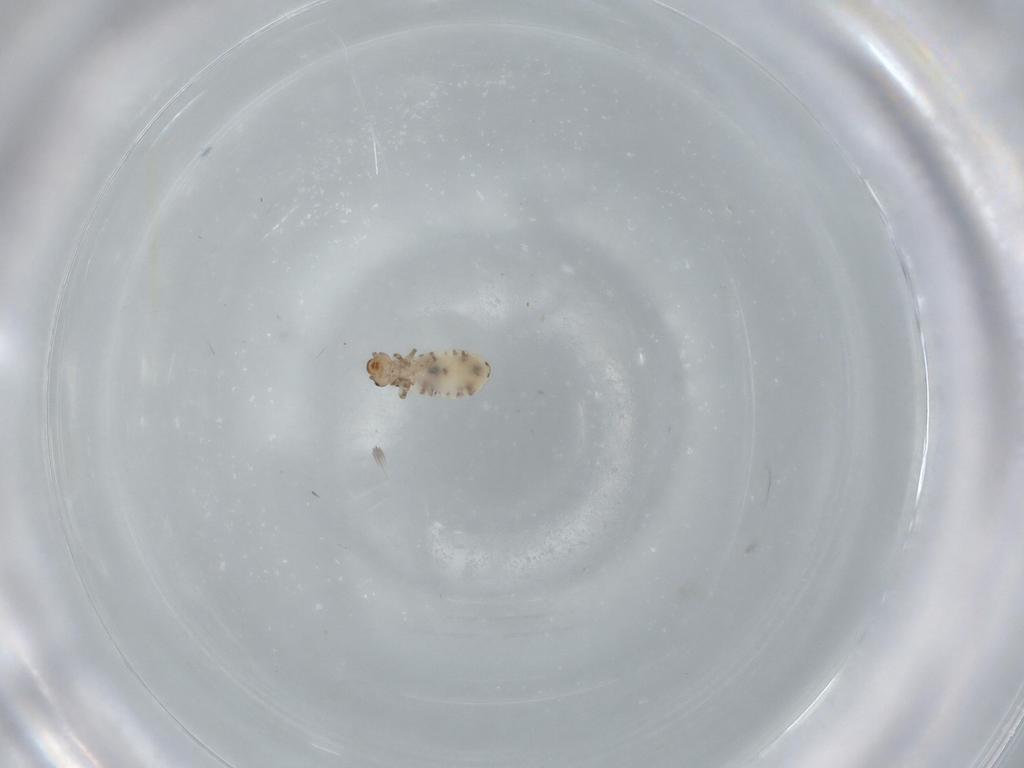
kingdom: Animalia
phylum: Arthropoda
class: Insecta
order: Psocodea
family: Liposcelididae
